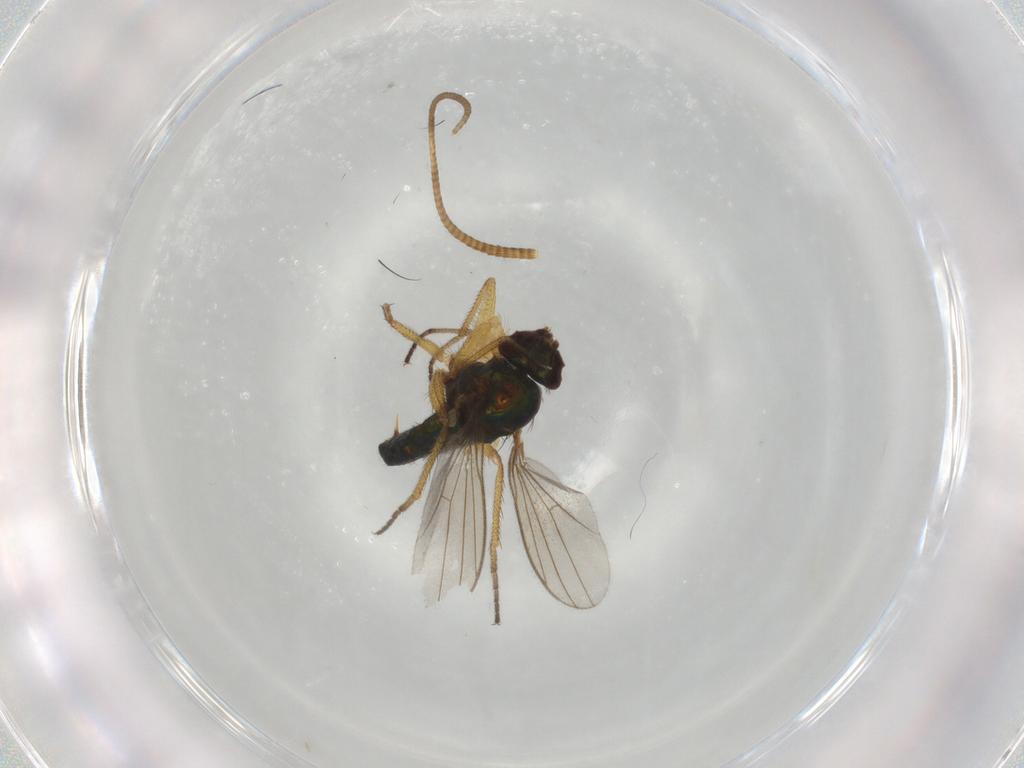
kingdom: Animalia
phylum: Arthropoda
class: Insecta
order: Diptera
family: Dolichopodidae
